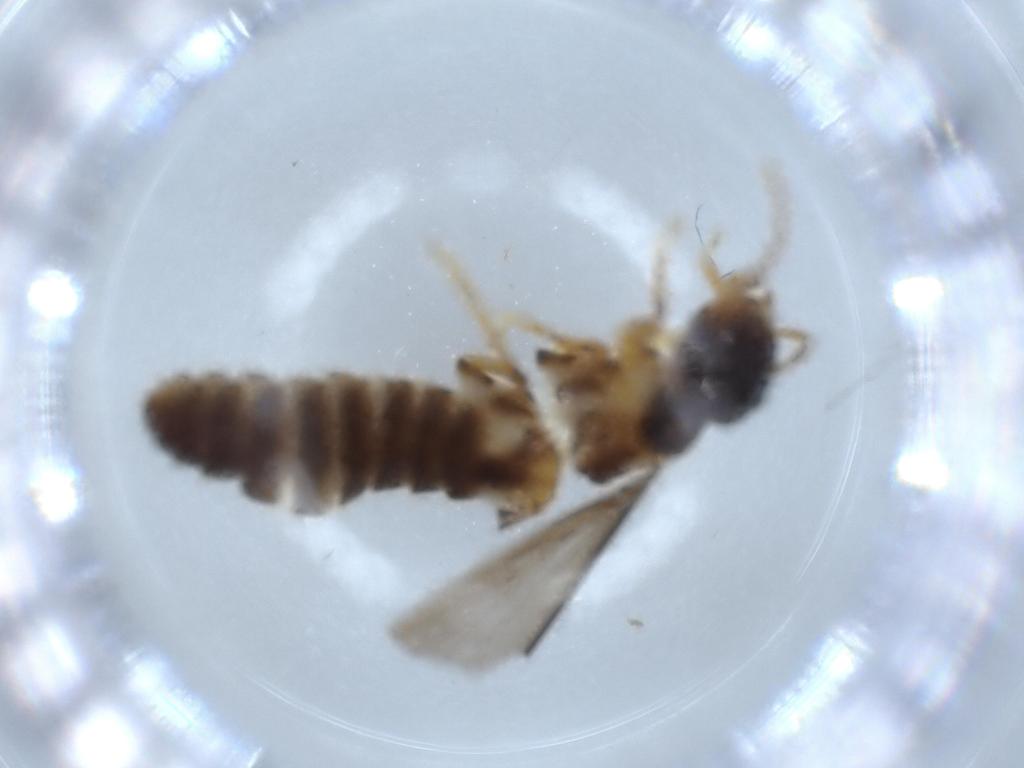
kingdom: Animalia
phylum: Arthropoda
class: Insecta
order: Blattodea
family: Termitidae
